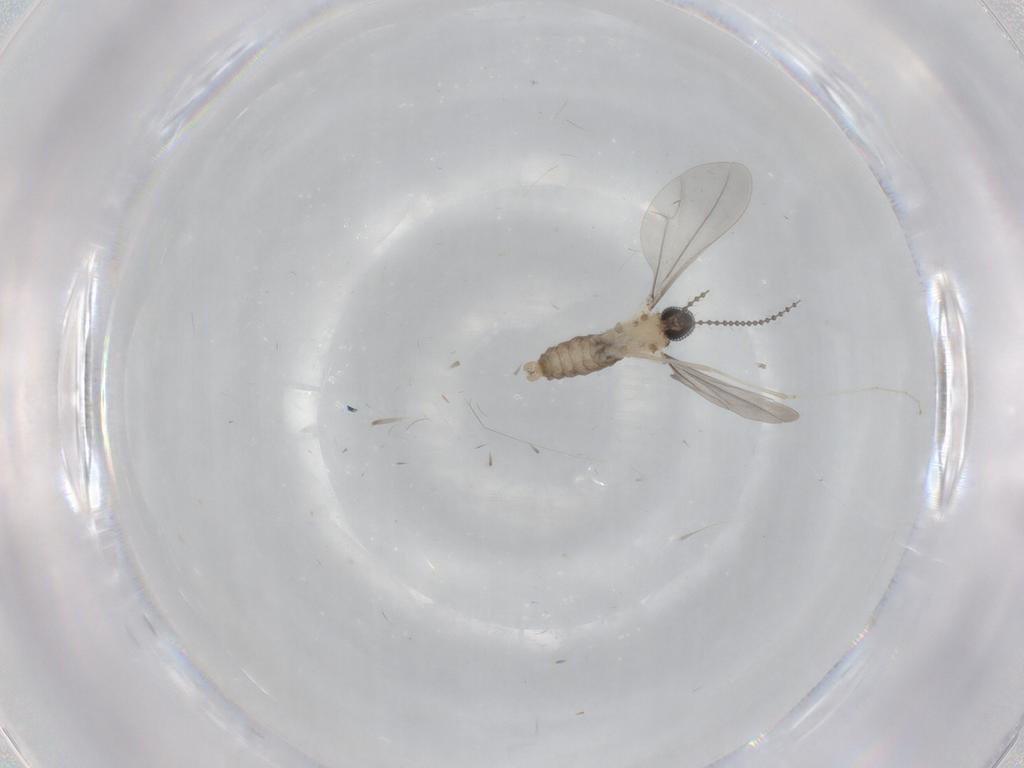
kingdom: Animalia
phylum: Arthropoda
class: Insecta
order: Diptera
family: Cecidomyiidae
